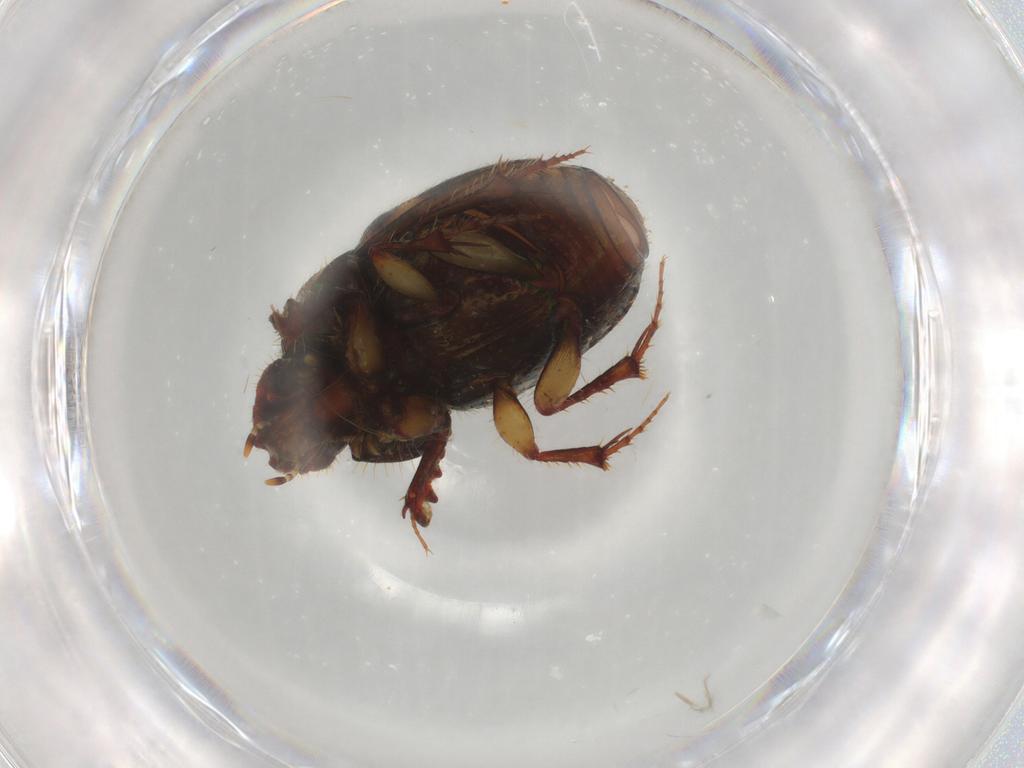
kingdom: Animalia
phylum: Arthropoda
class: Insecta
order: Coleoptera
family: Scarabaeidae
